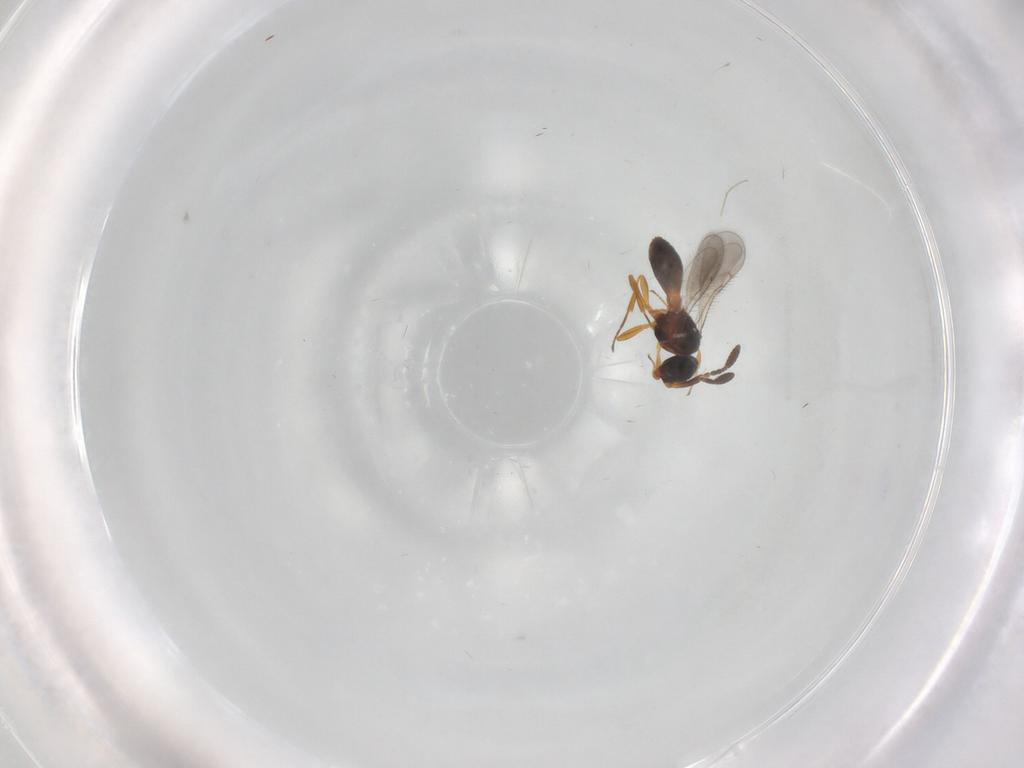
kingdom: Animalia
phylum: Arthropoda
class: Insecta
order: Hymenoptera
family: Scelionidae
